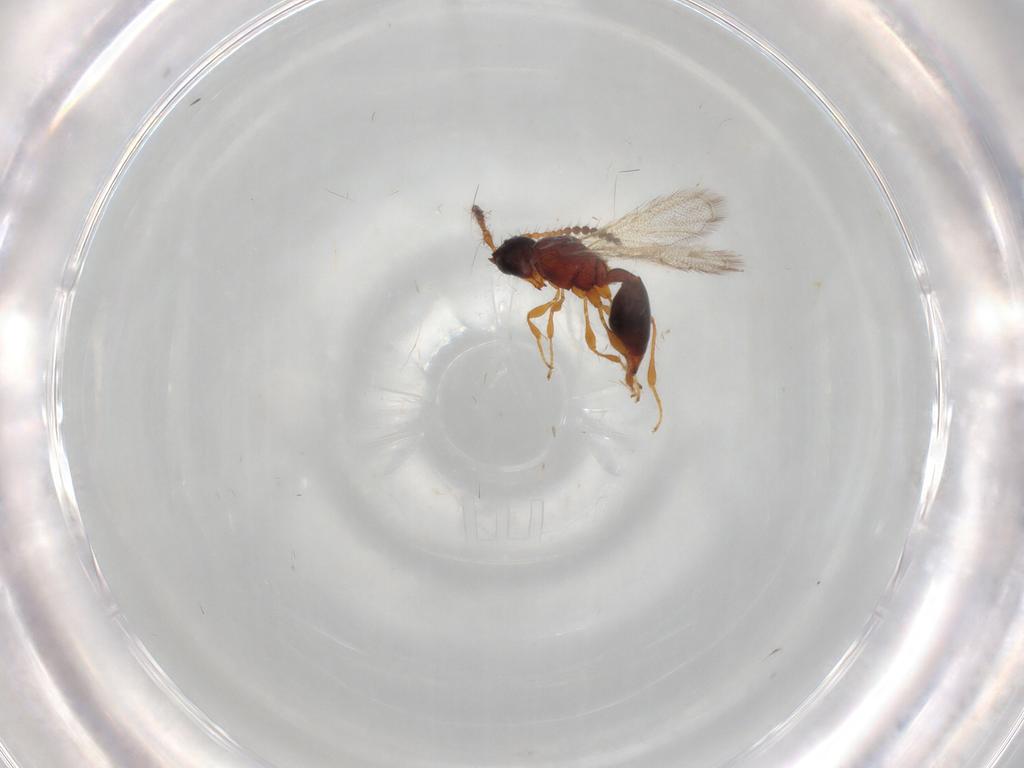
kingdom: Animalia
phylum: Arthropoda
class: Insecta
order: Hymenoptera
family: Diapriidae
